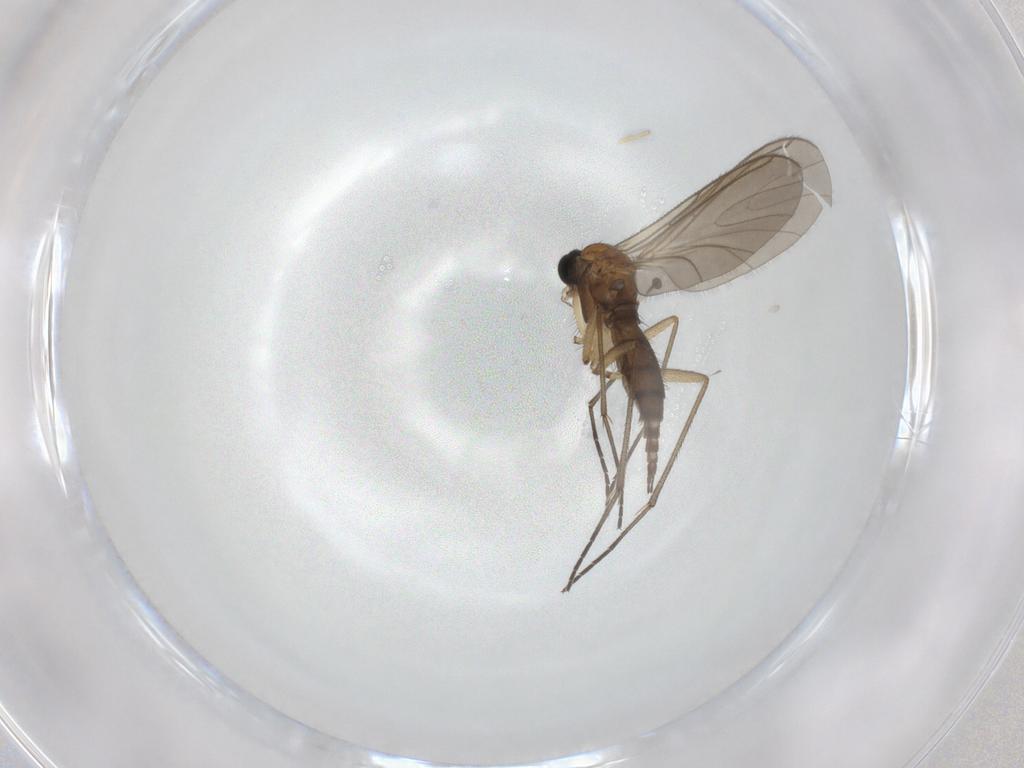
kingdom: Animalia
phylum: Arthropoda
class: Insecta
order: Diptera
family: Sciaridae
